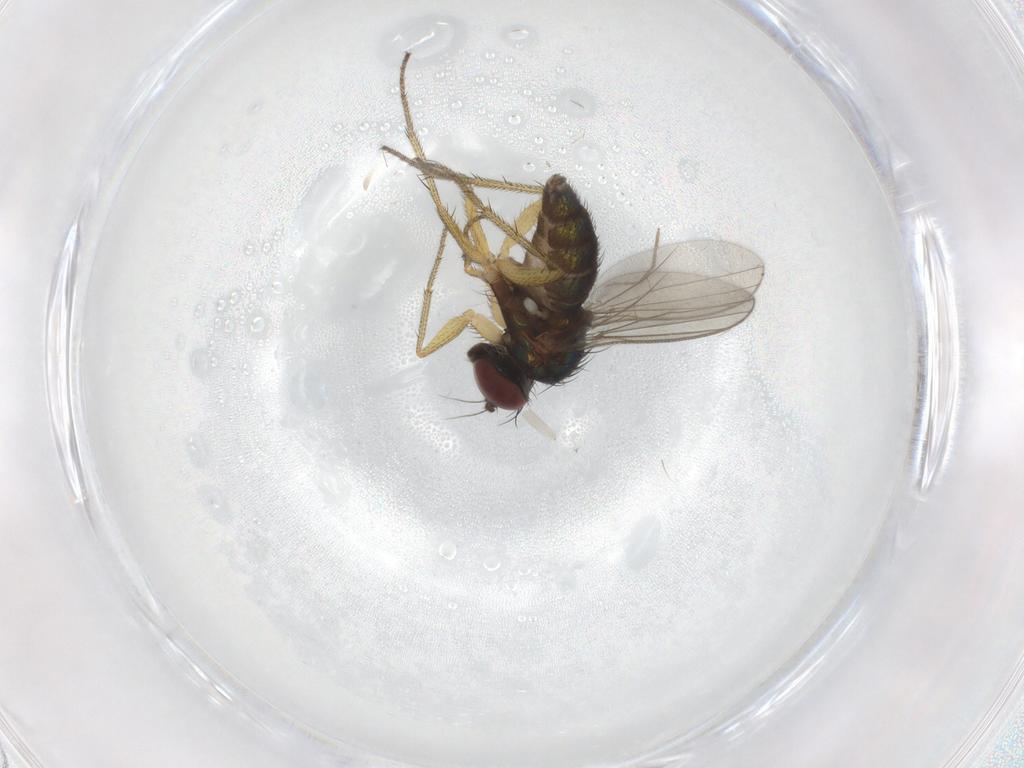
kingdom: Animalia
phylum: Arthropoda
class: Insecta
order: Diptera
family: Chironomidae
